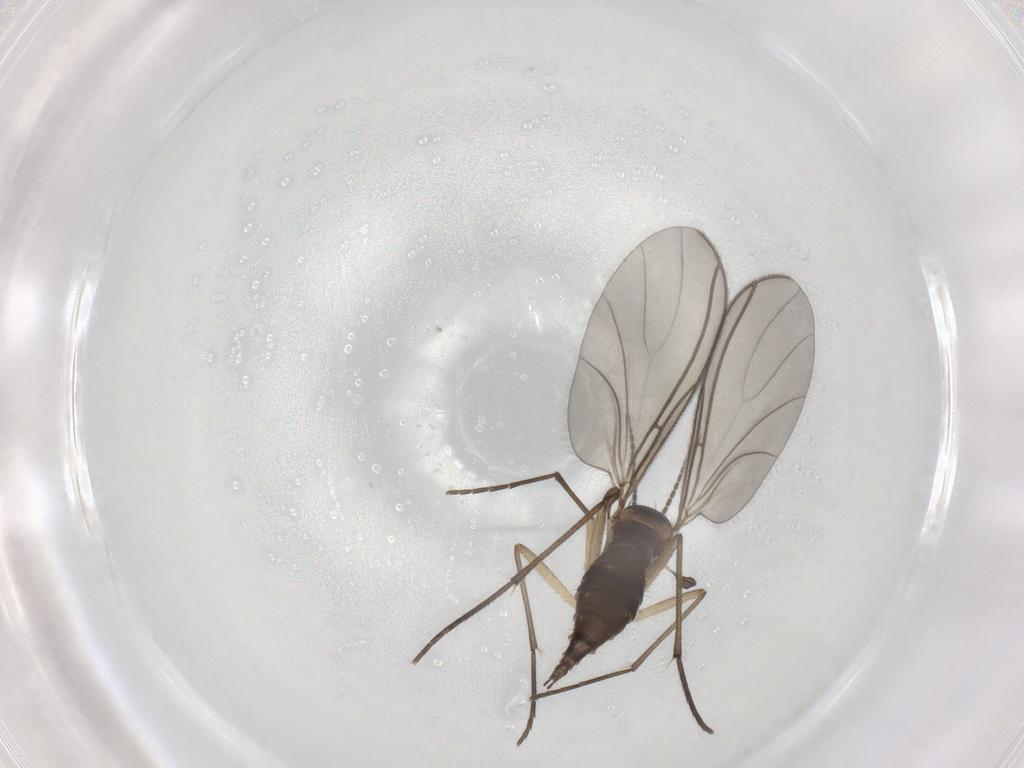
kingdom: Animalia
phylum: Arthropoda
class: Insecta
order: Diptera
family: Sciaridae
